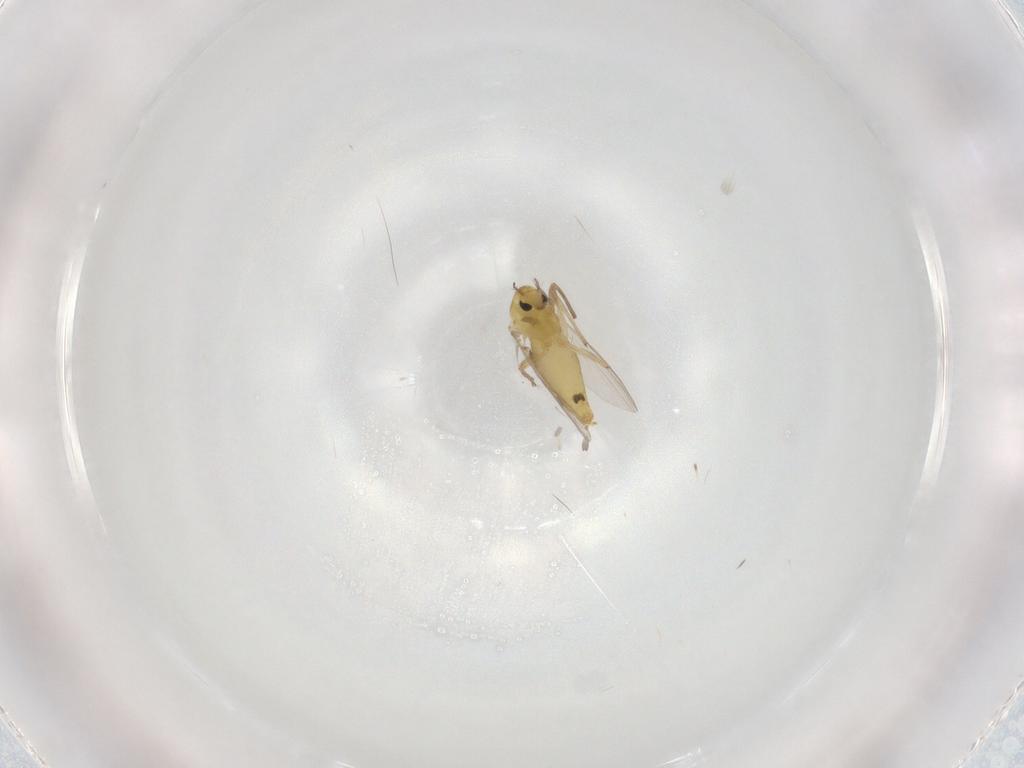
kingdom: Animalia
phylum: Arthropoda
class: Insecta
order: Diptera
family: Chironomidae
